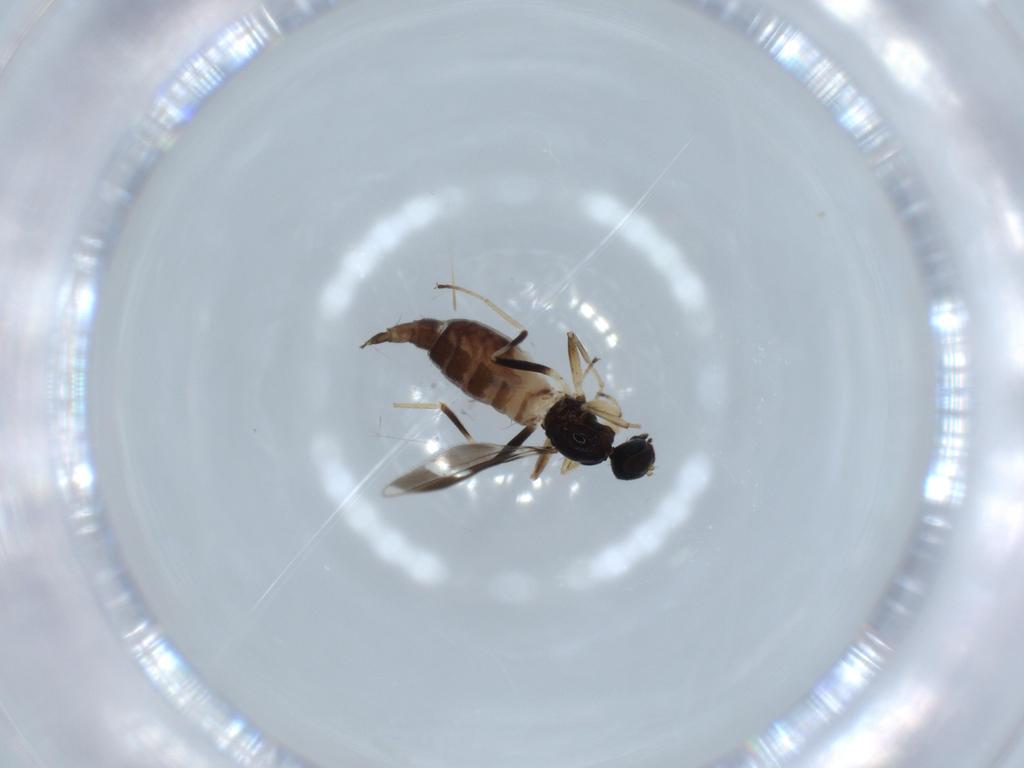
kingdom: Animalia
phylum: Arthropoda
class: Insecta
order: Diptera
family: Hybotidae
